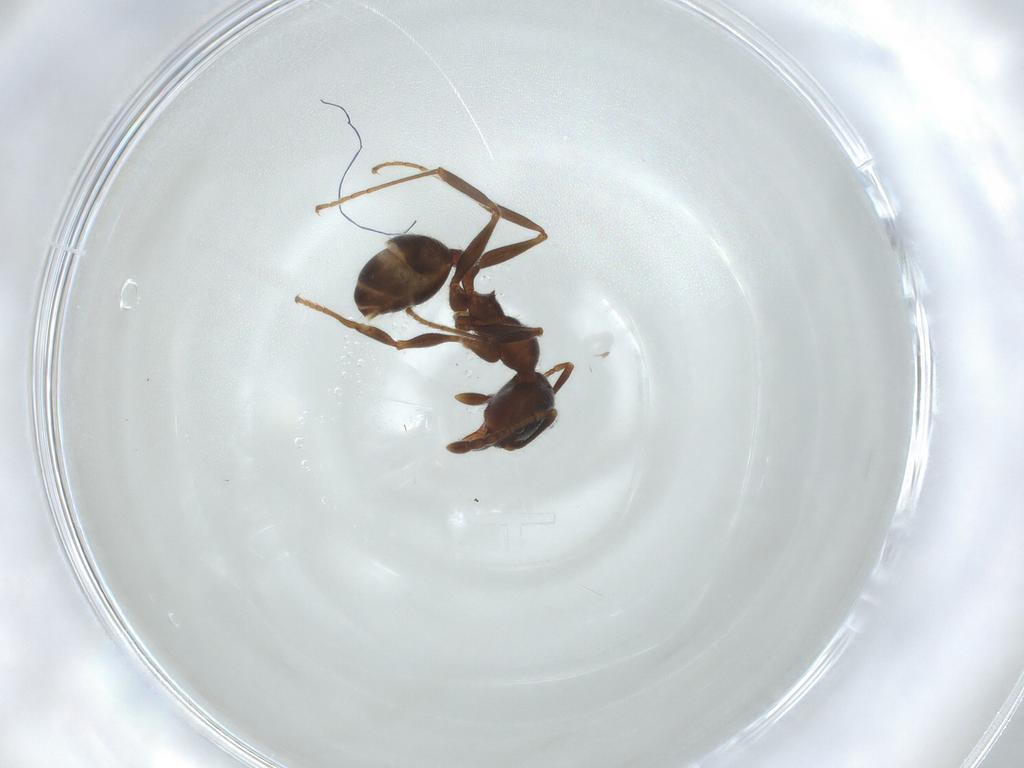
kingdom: Animalia
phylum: Arthropoda
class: Insecta
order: Hymenoptera
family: Formicidae
